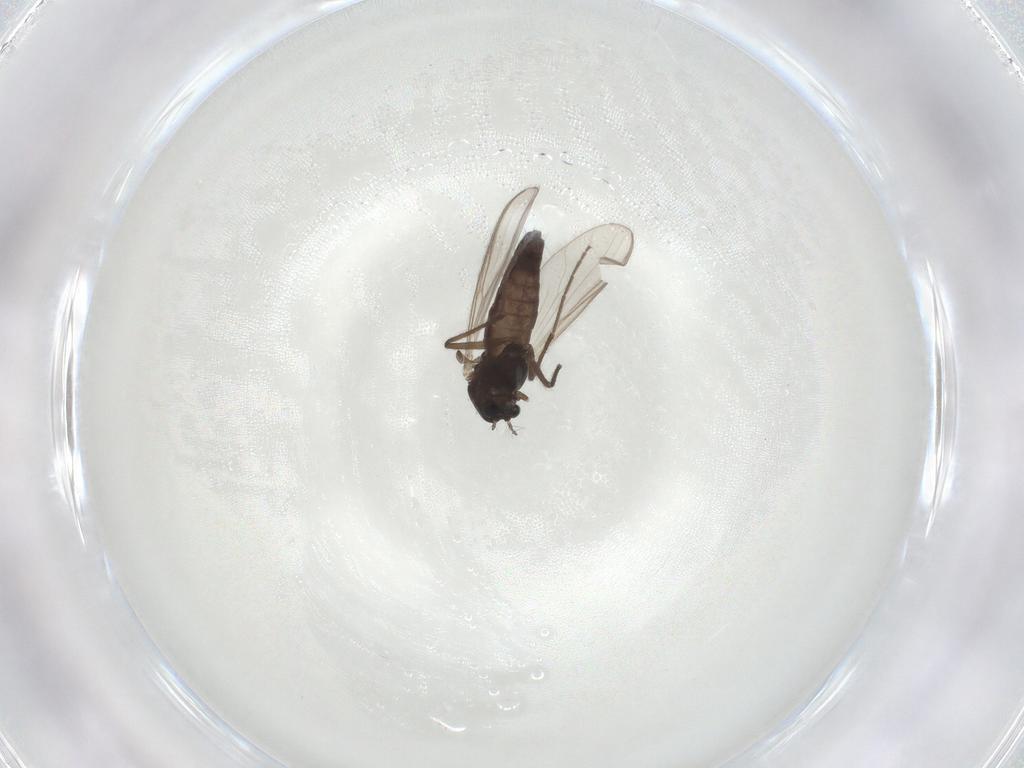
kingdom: Animalia
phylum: Arthropoda
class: Insecta
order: Diptera
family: Chironomidae
